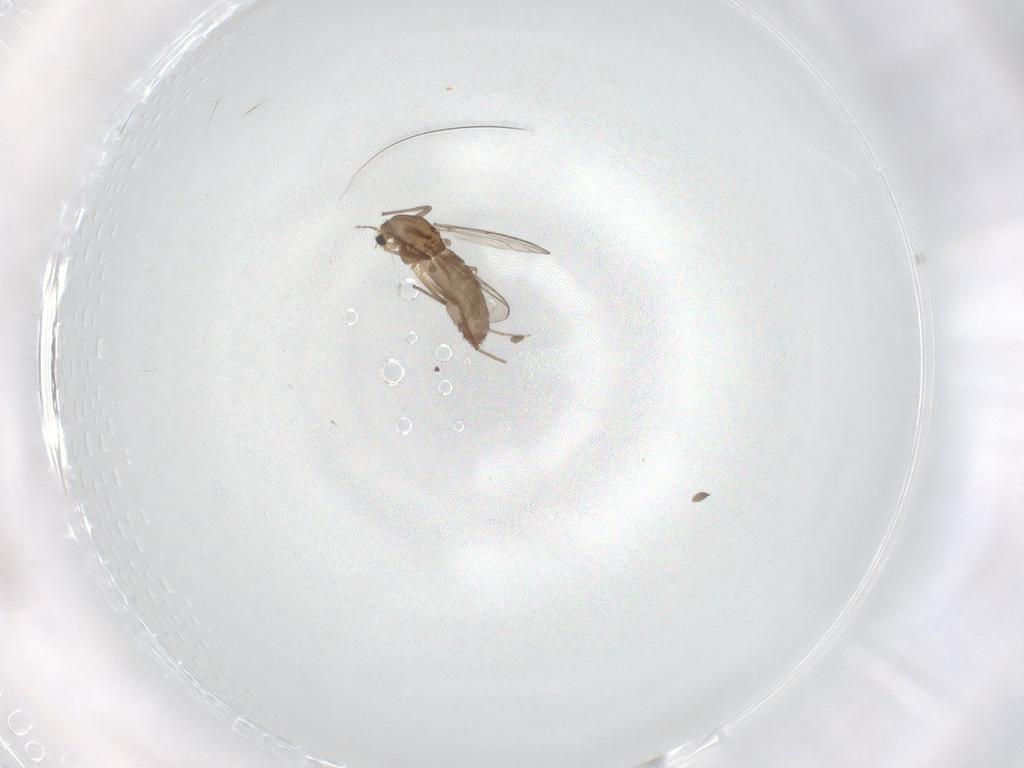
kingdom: Animalia
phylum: Arthropoda
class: Insecta
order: Diptera
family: Chironomidae
